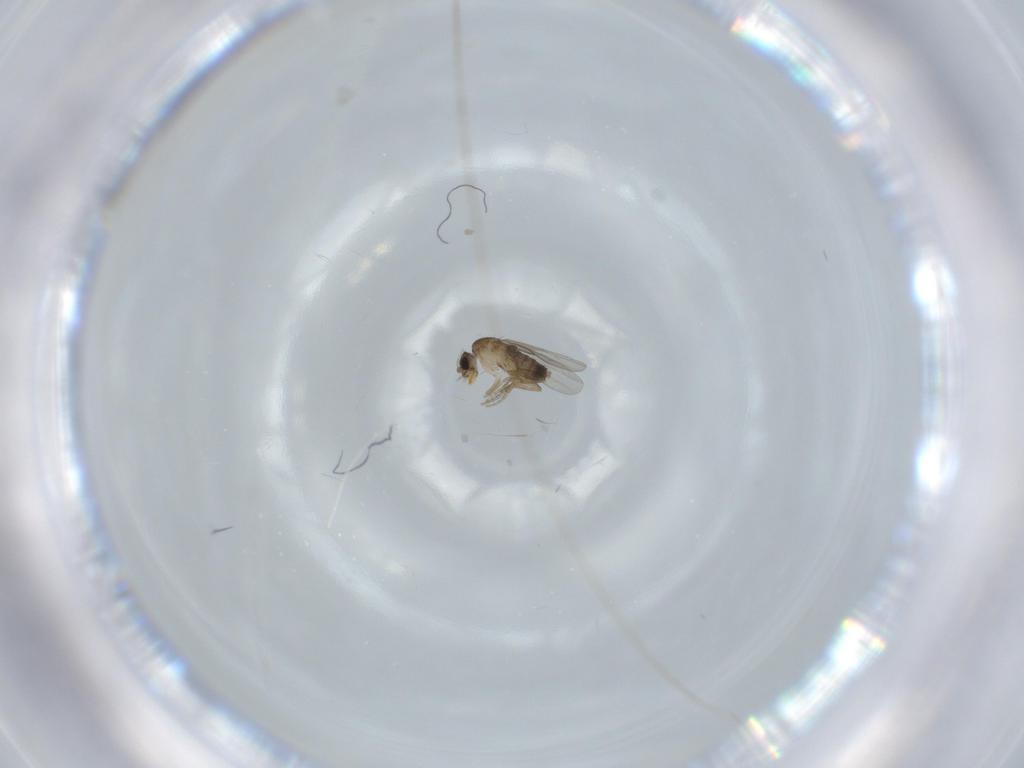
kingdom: Animalia
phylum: Arthropoda
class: Insecta
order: Diptera
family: Phoridae
